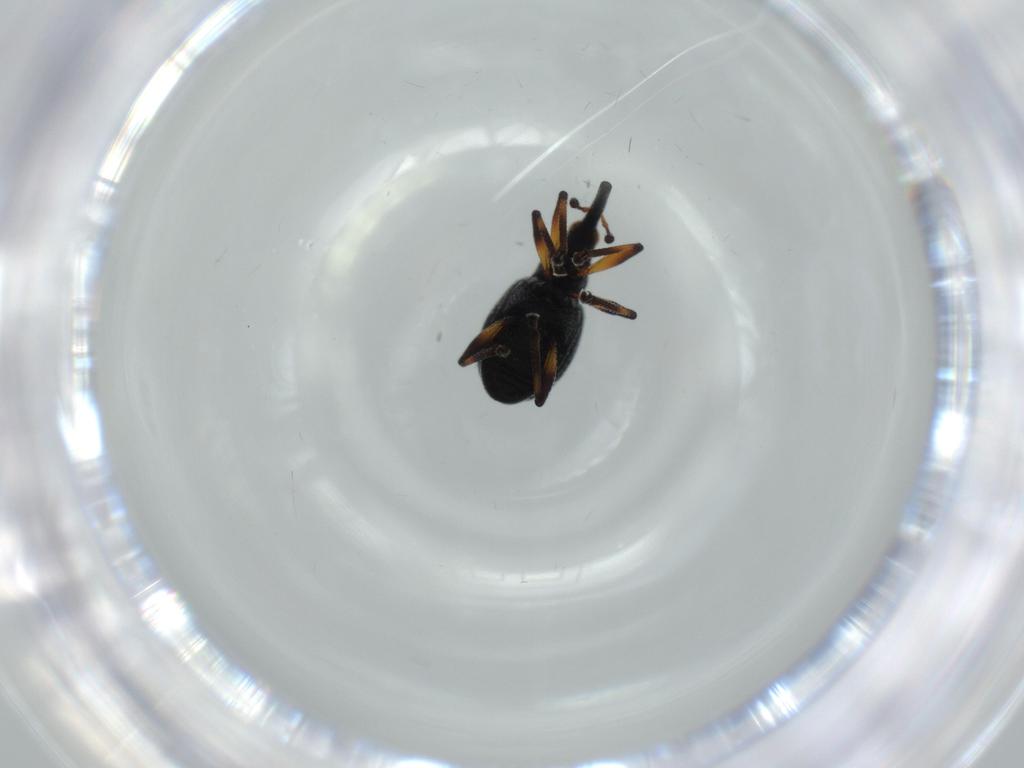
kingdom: Animalia
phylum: Arthropoda
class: Insecta
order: Coleoptera
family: Brentidae
